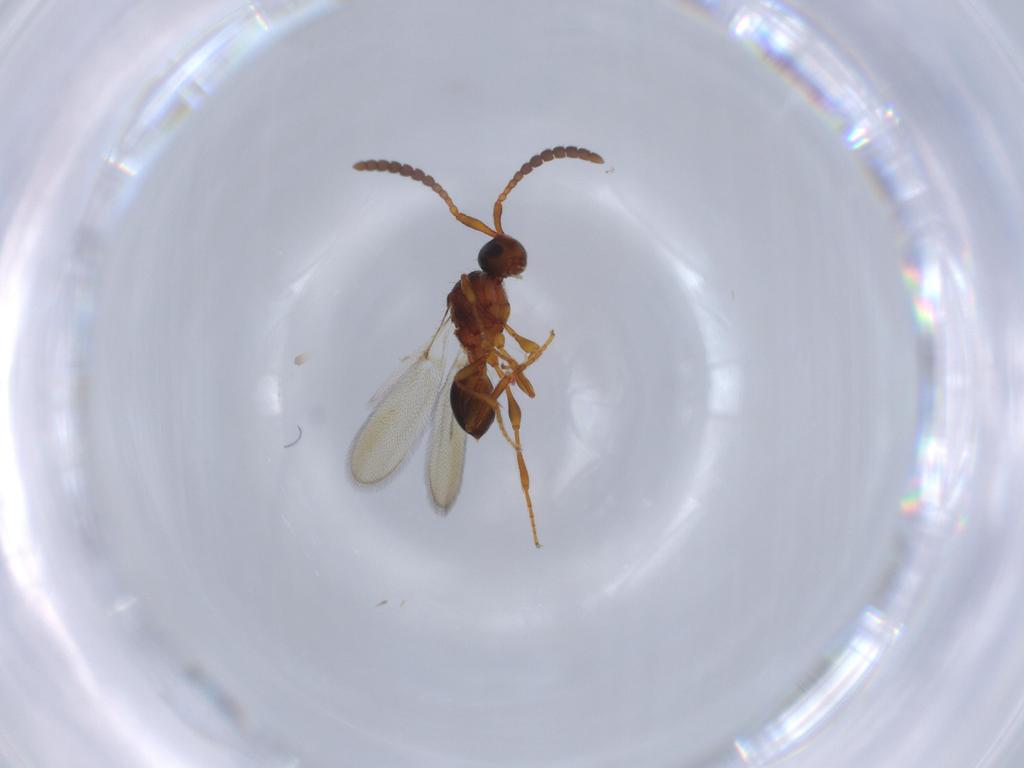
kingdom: Animalia
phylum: Arthropoda
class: Insecta
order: Hymenoptera
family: Diapriidae
